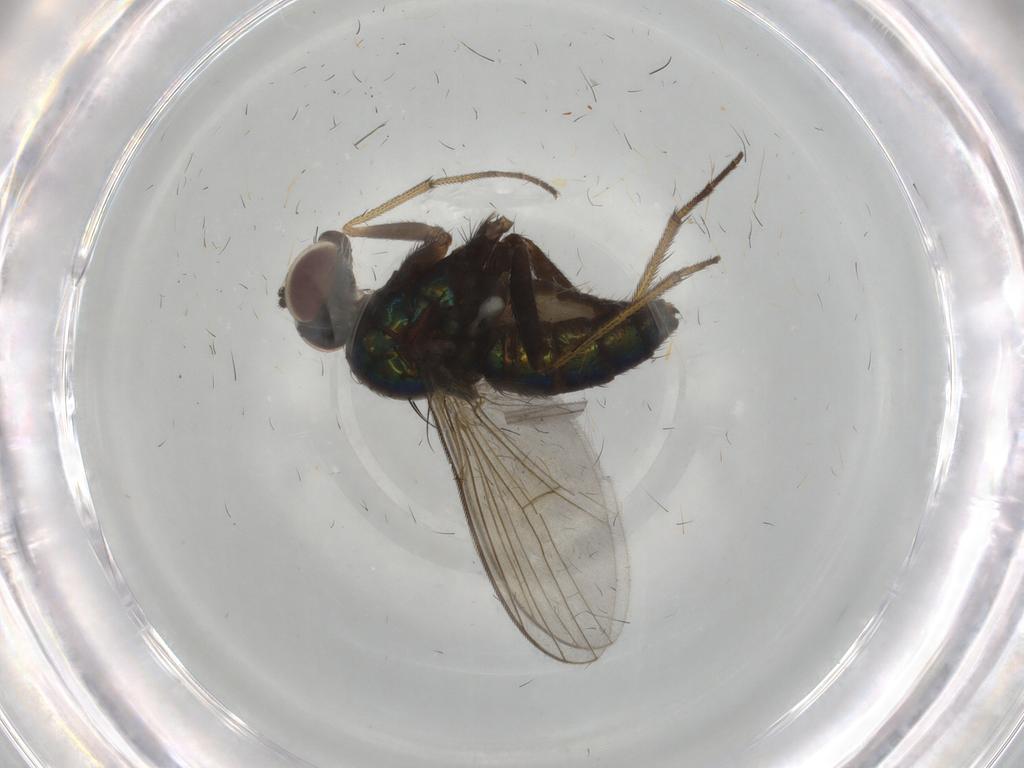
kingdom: Animalia
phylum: Arthropoda
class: Insecta
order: Diptera
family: Dolichopodidae
